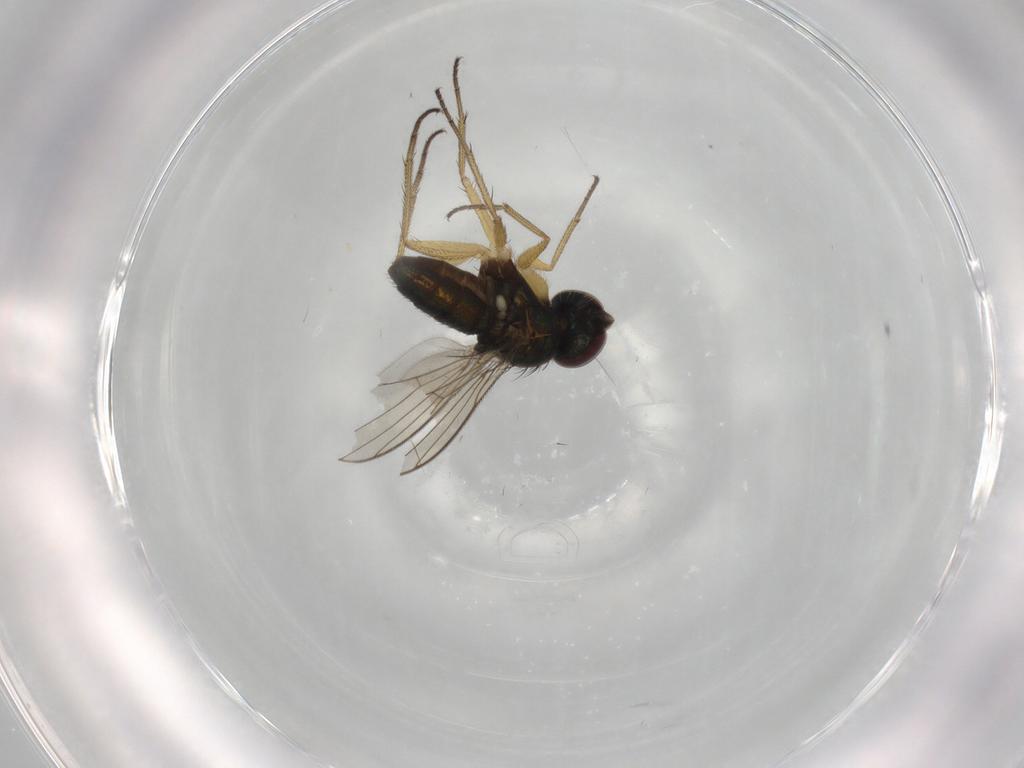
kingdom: Animalia
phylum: Arthropoda
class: Insecta
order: Diptera
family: Dolichopodidae
